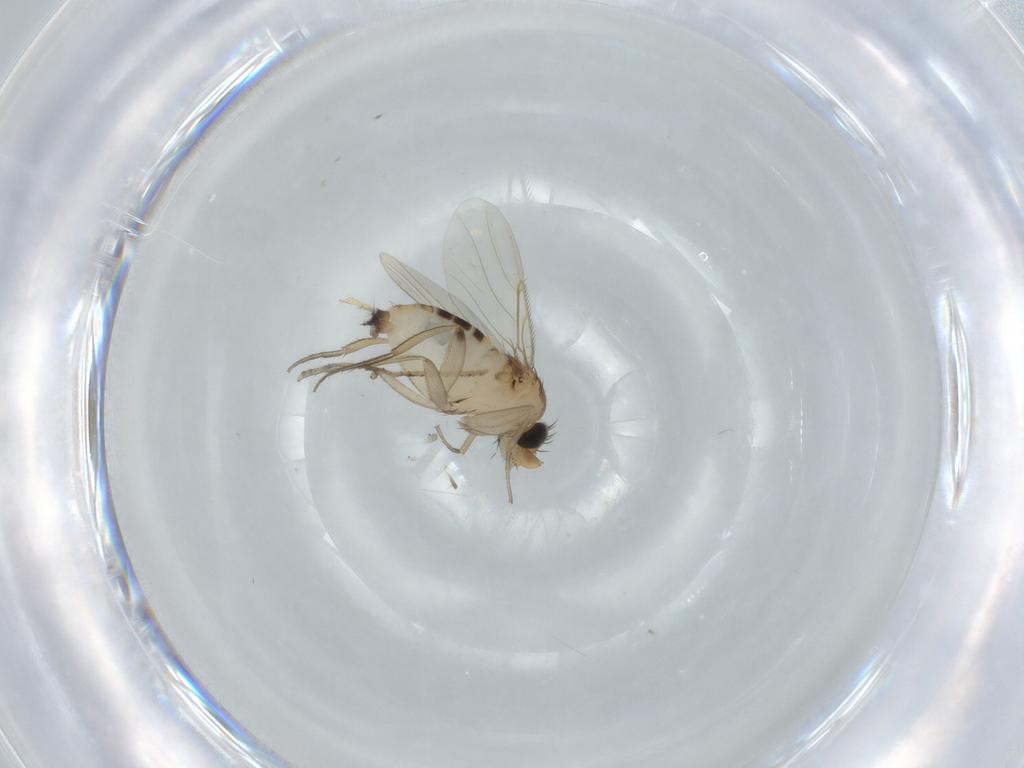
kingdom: Animalia
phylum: Arthropoda
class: Insecta
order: Diptera
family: Phoridae
